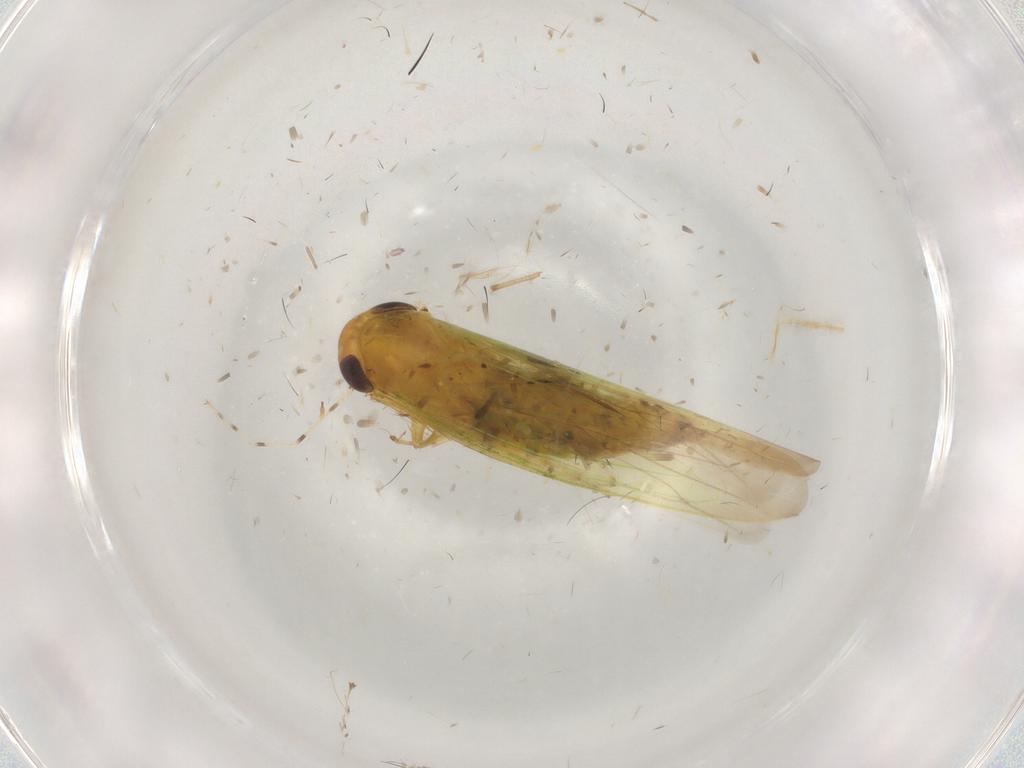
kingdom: Animalia
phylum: Arthropoda
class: Insecta
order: Hemiptera
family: Cicadellidae
